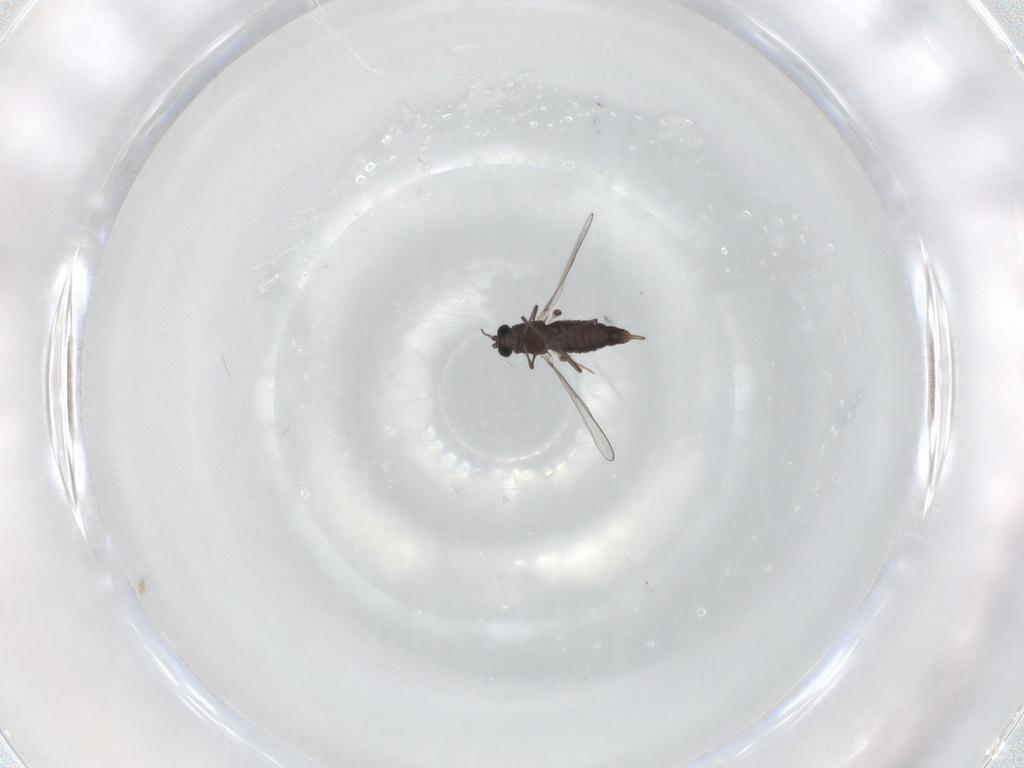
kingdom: Animalia
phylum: Arthropoda
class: Insecta
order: Diptera
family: Chironomidae
